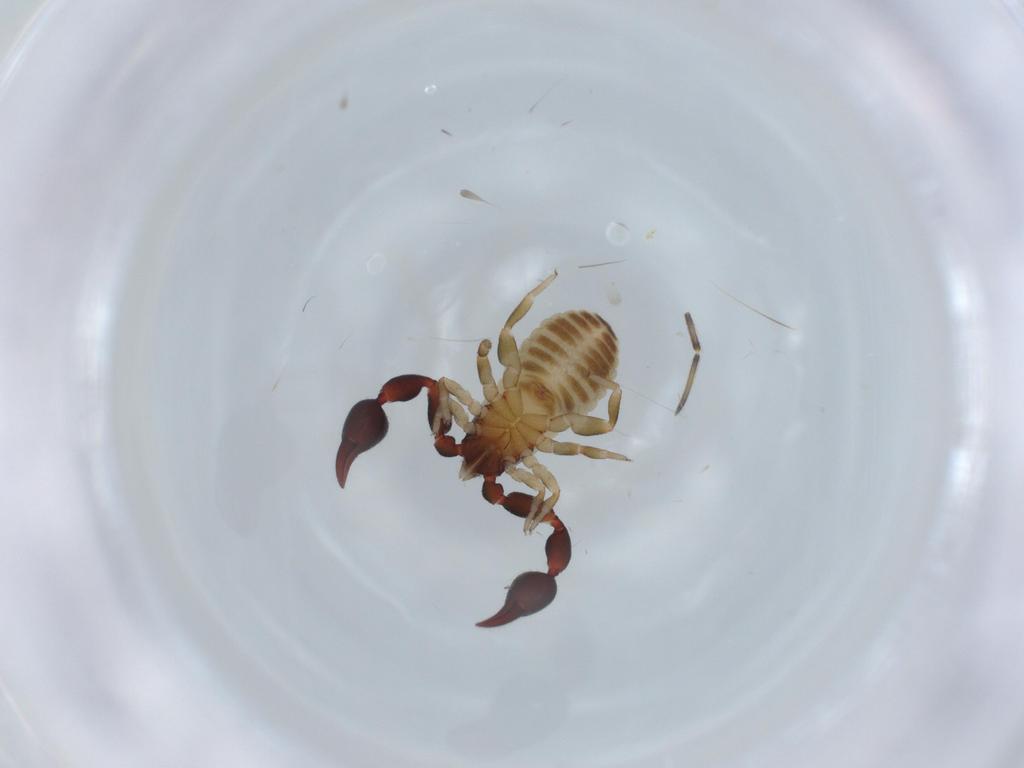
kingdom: Animalia
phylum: Arthropoda
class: Arachnida
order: Pseudoscorpiones
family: Chernetidae
